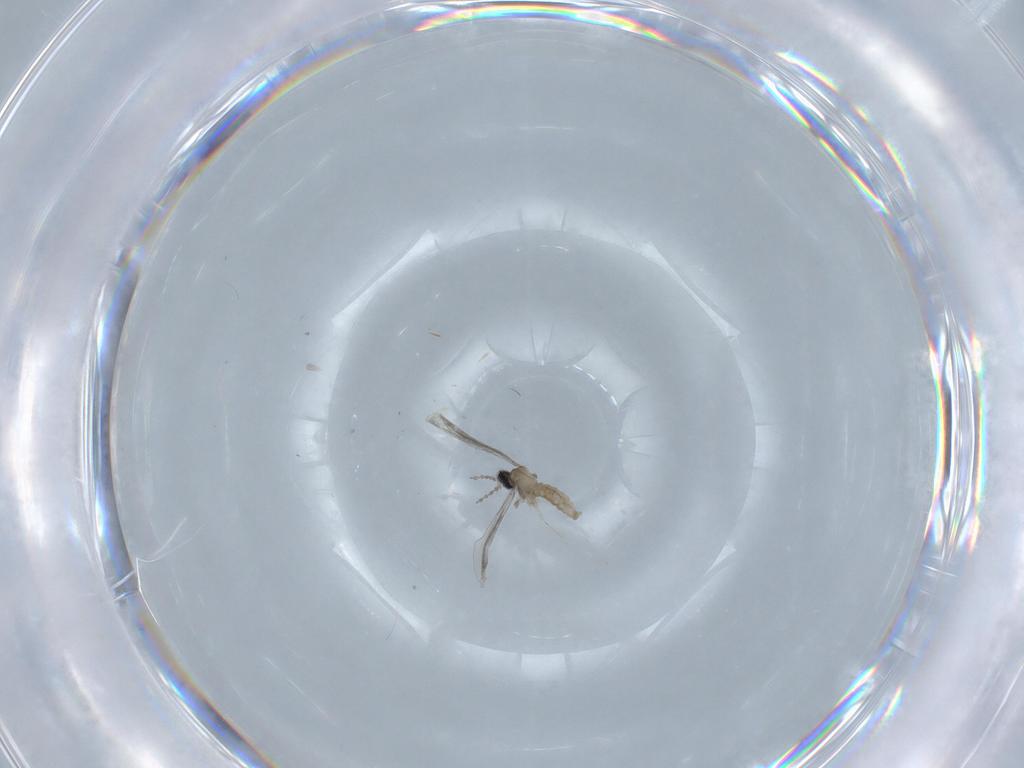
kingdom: Animalia
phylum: Arthropoda
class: Insecta
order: Diptera
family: Cecidomyiidae
